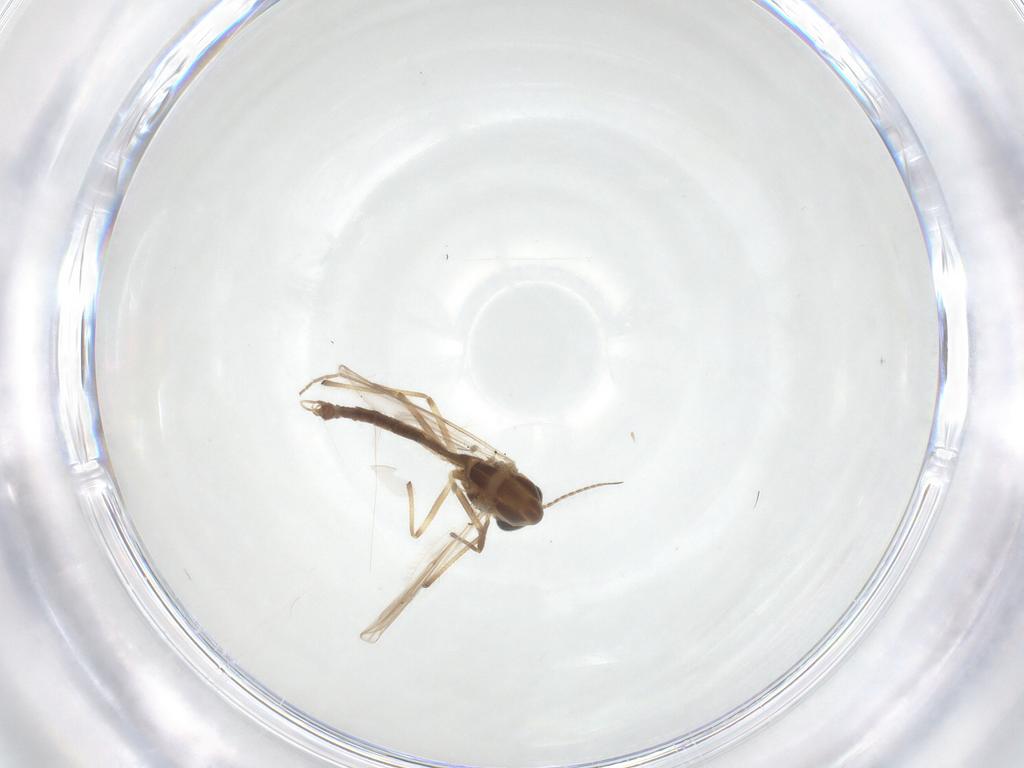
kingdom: Animalia
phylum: Arthropoda
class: Insecta
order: Diptera
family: Chironomidae
